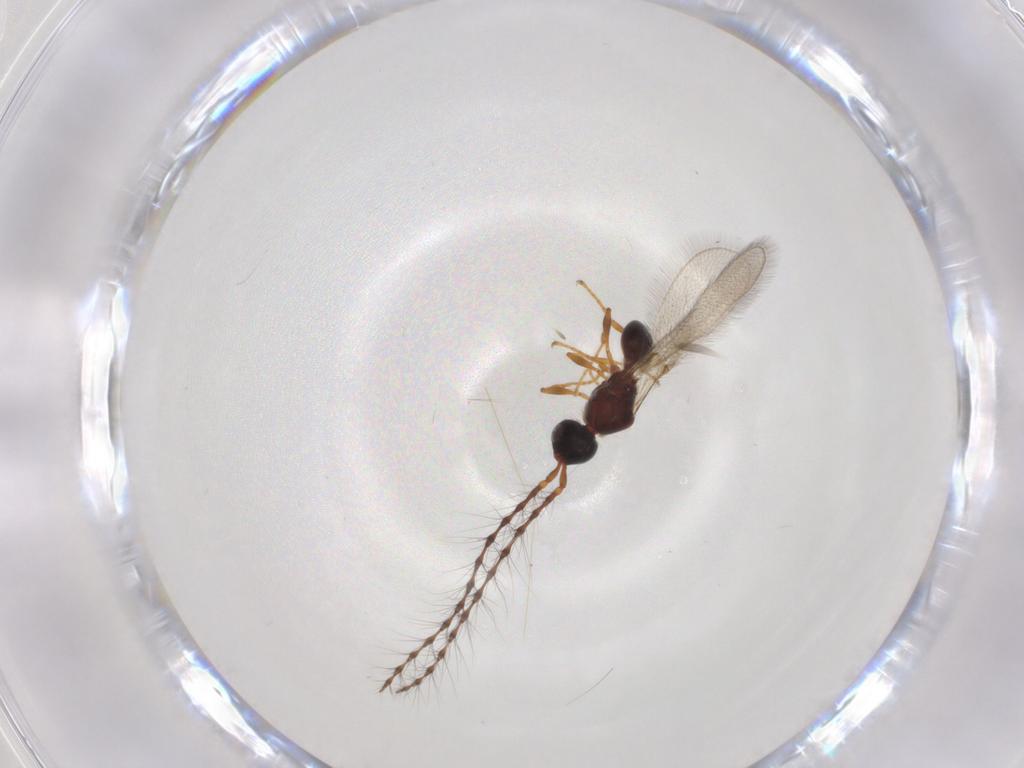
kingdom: Animalia
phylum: Arthropoda
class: Insecta
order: Hymenoptera
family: Diapriidae
